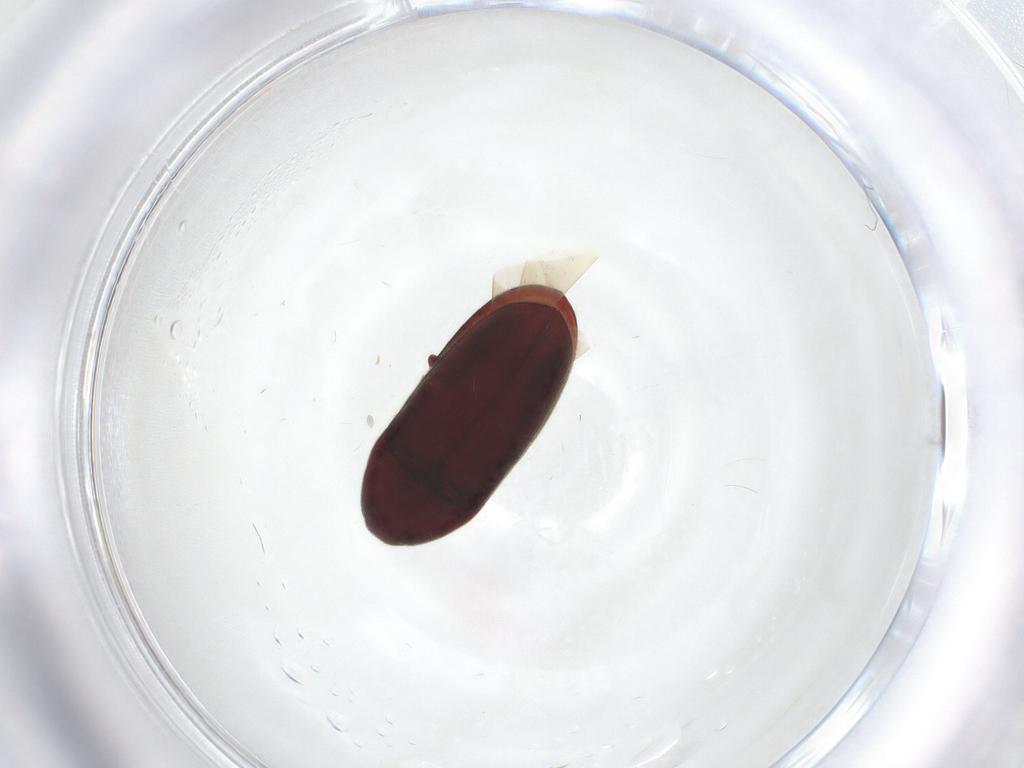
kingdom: Animalia
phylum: Arthropoda
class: Insecta
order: Coleoptera
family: Throscidae
